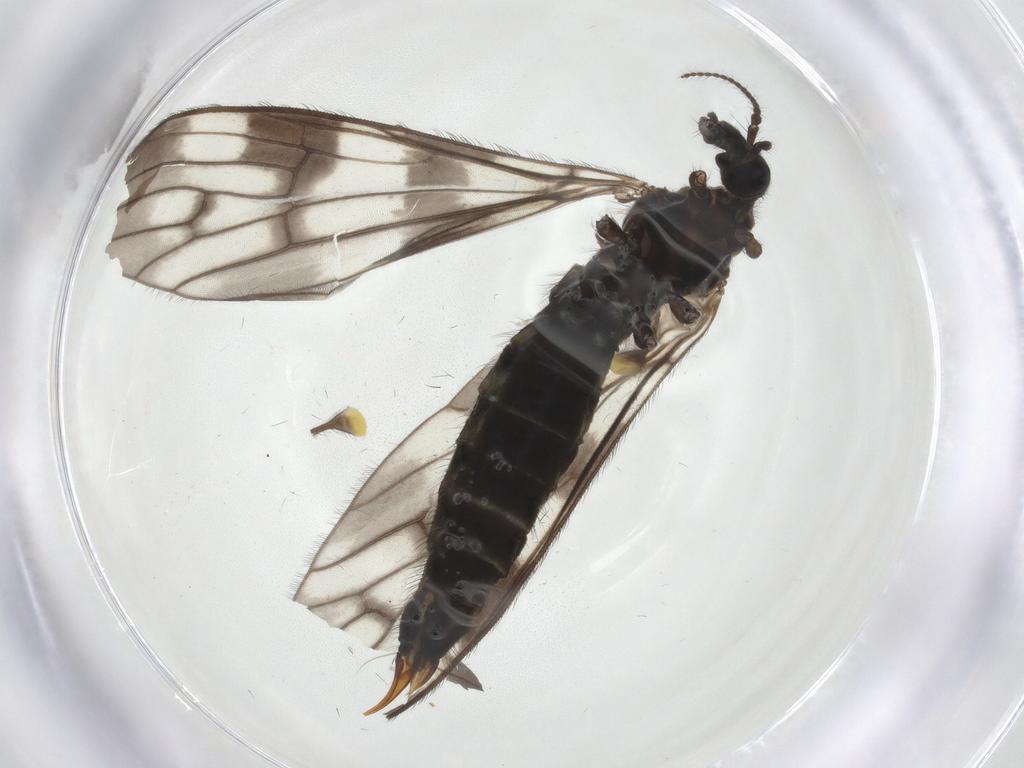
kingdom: Animalia
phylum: Arthropoda
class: Insecta
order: Diptera
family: Limoniidae
